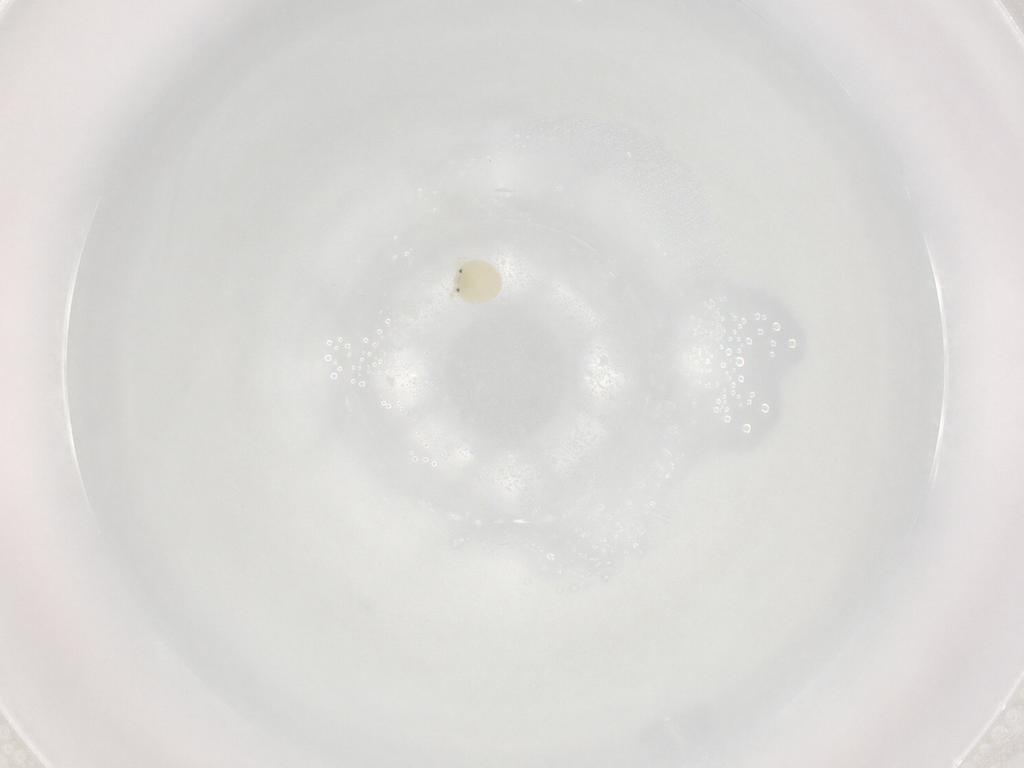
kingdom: Animalia
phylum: Arthropoda
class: Arachnida
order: Trombidiformes
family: Arrenuridae
